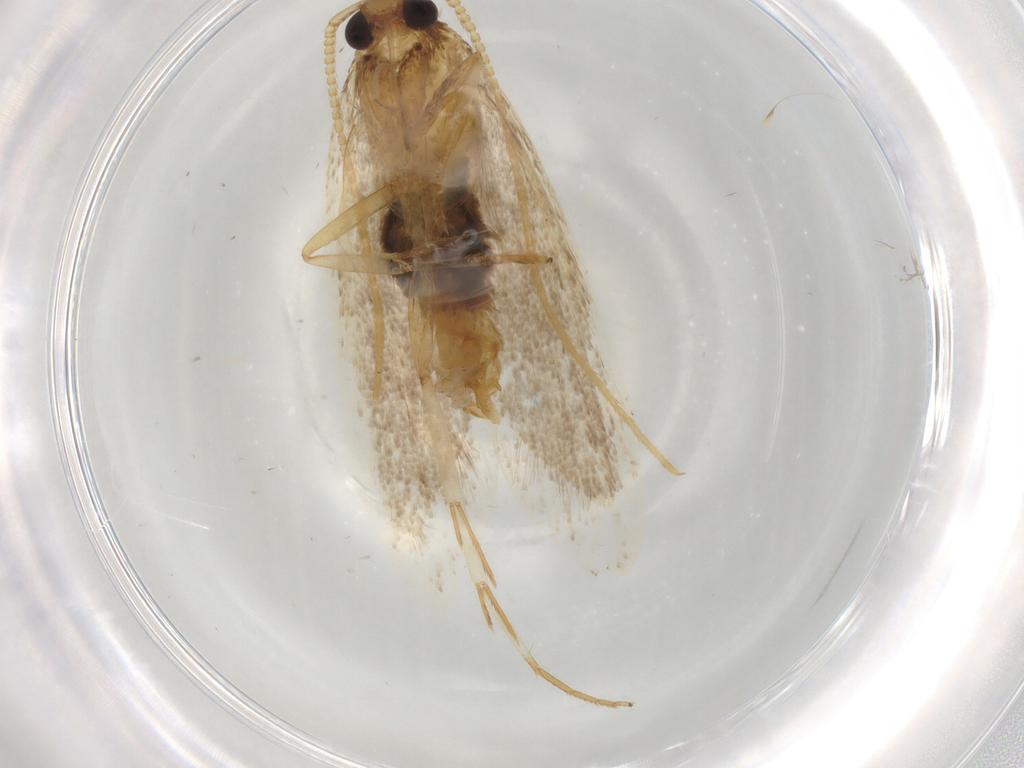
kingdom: Animalia
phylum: Arthropoda
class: Insecta
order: Lepidoptera
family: Lecithoceridae
